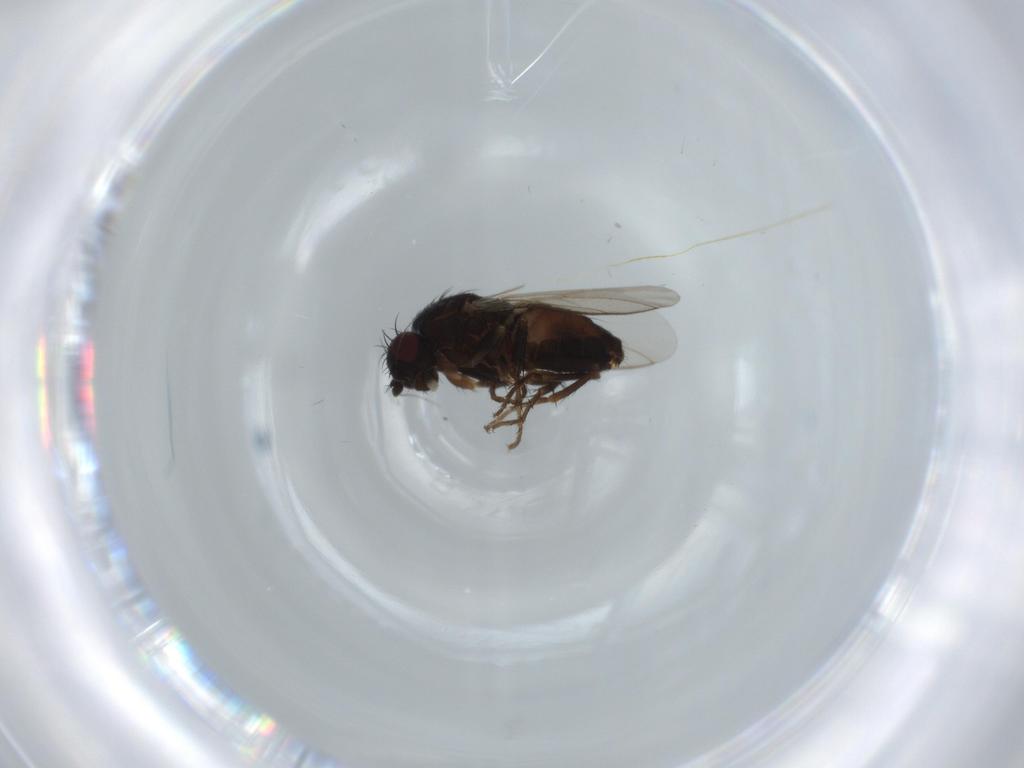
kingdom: Animalia
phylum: Arthropoda
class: Insecta
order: Diptera
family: Sphaeroceridae
